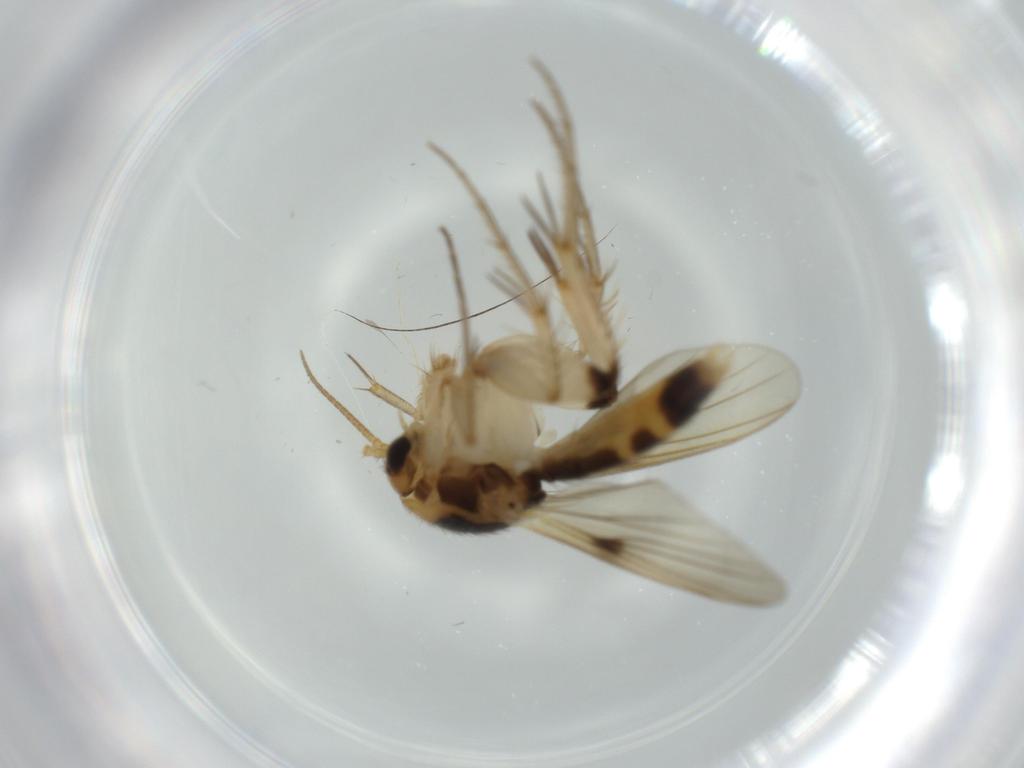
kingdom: Animalia
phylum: Arthropoda
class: Insecta
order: Diptera
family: Mycetophilidae
